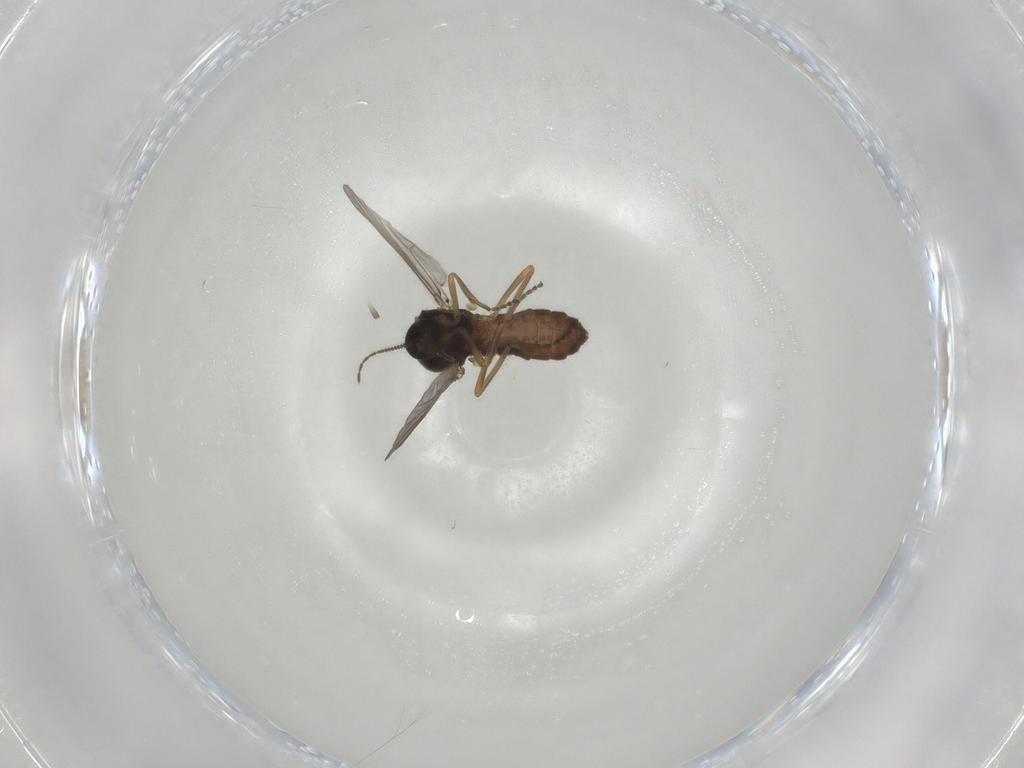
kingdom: Animalia
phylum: Arthropoda
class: Insecta
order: Diptera
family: Ceratopogonidae
